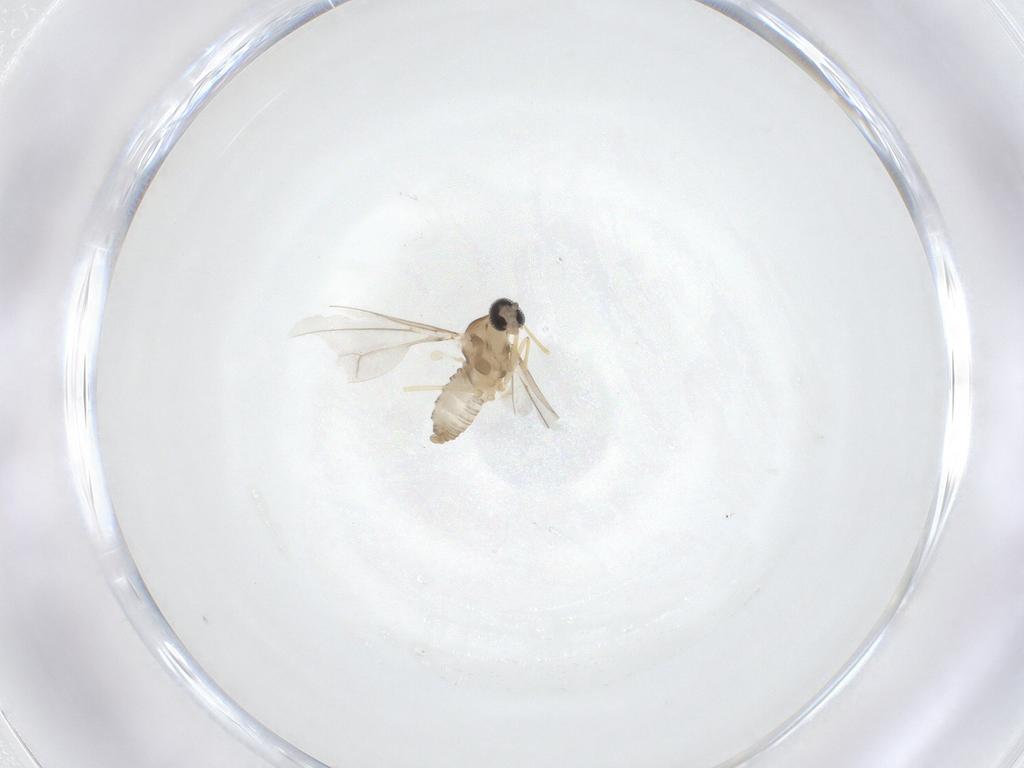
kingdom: Animalia
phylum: Arthropoda
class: Insecta
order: Diptera
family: Cecidomyiidae
